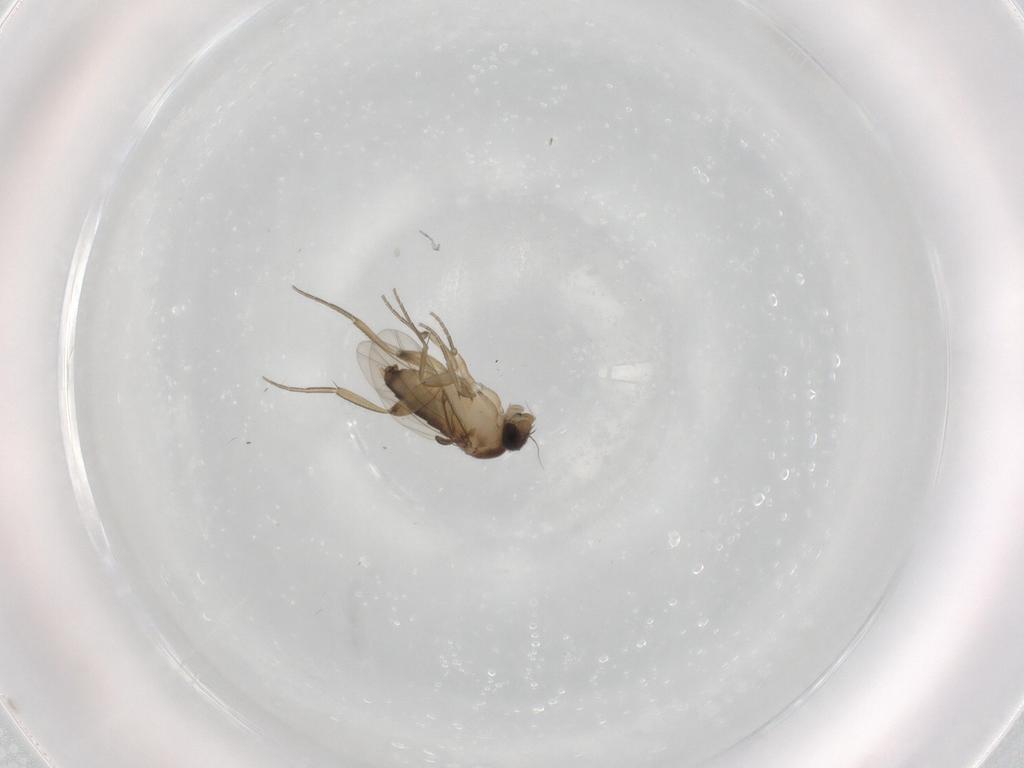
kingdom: Animalia
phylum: Arthropoda
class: Insecta
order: Diptera
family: Phoridae
